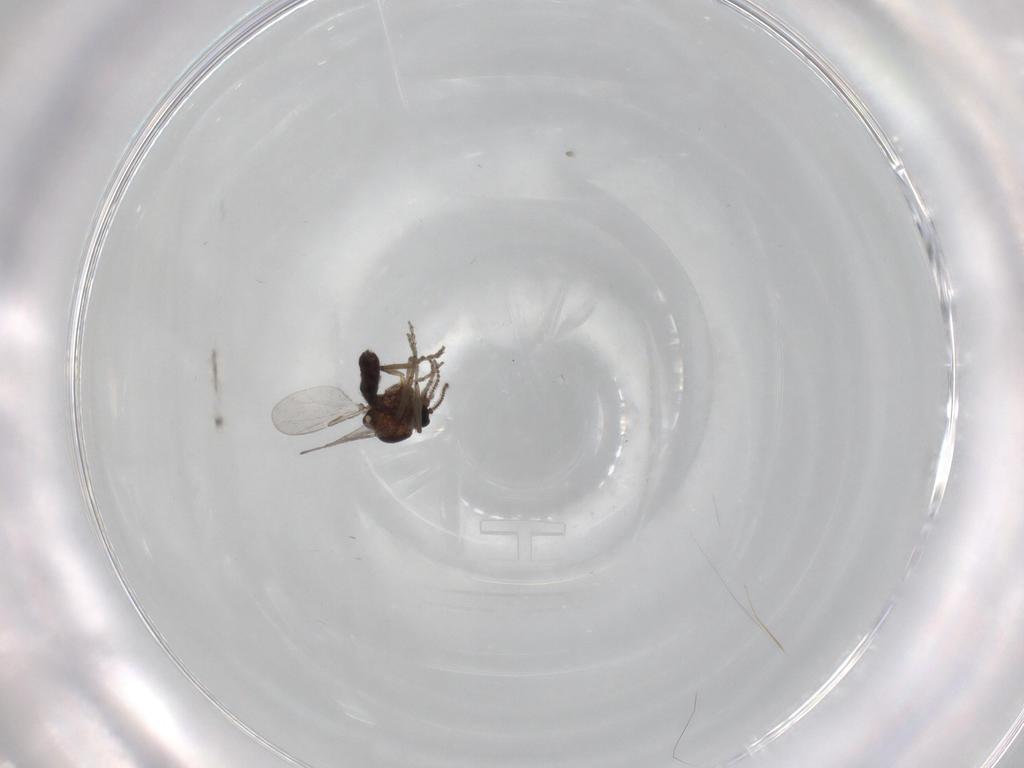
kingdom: Animalia
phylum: Arthropoda
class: Insecta
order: Diptera
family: Ceratopogonidae
